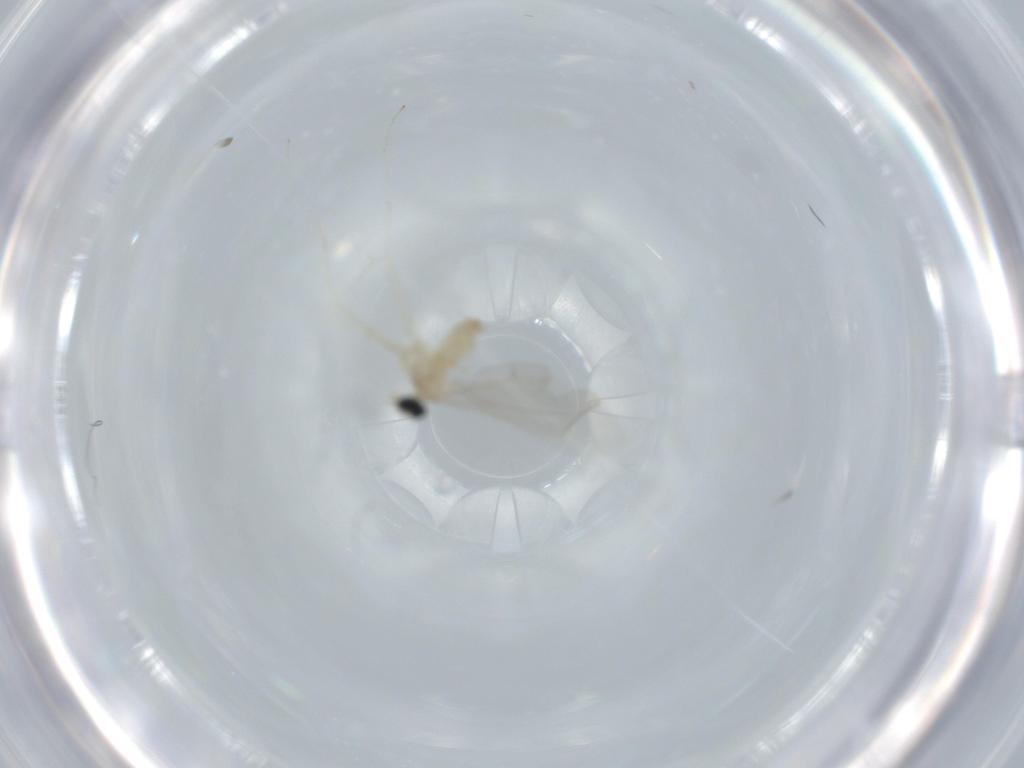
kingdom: Animalia
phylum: Arthropoda
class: Insecta
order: Diptera
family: Cecidomyiidae
